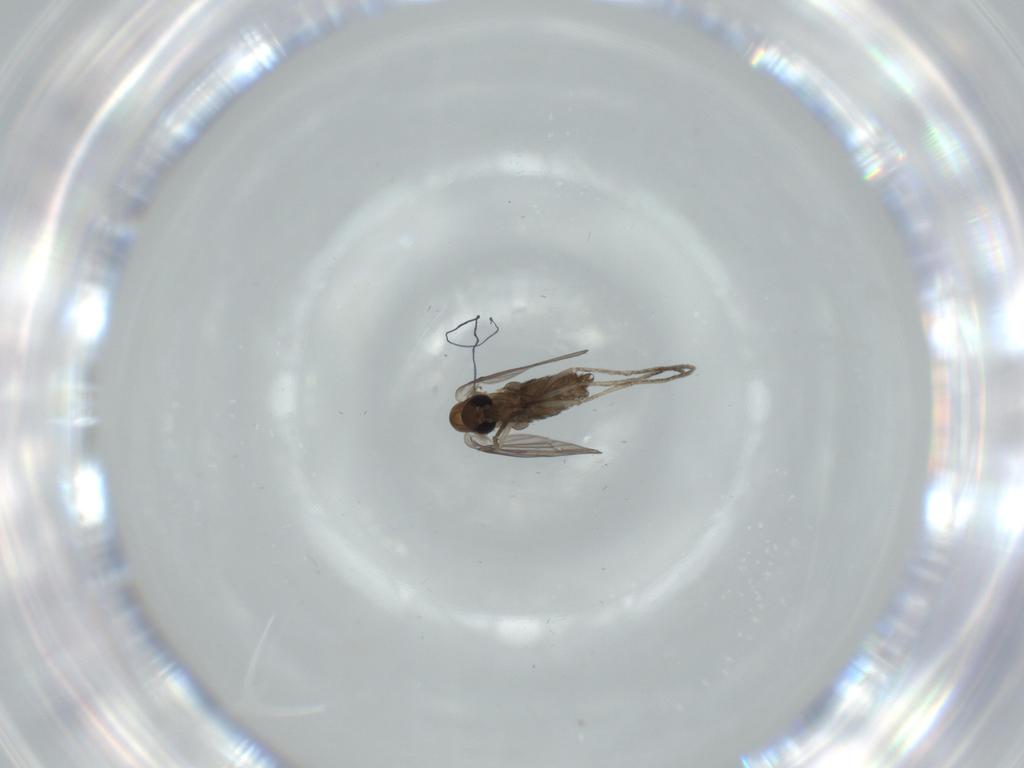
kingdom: Animalia
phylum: Arthropoda
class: Insecta
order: Diptera
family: Psychodidae
